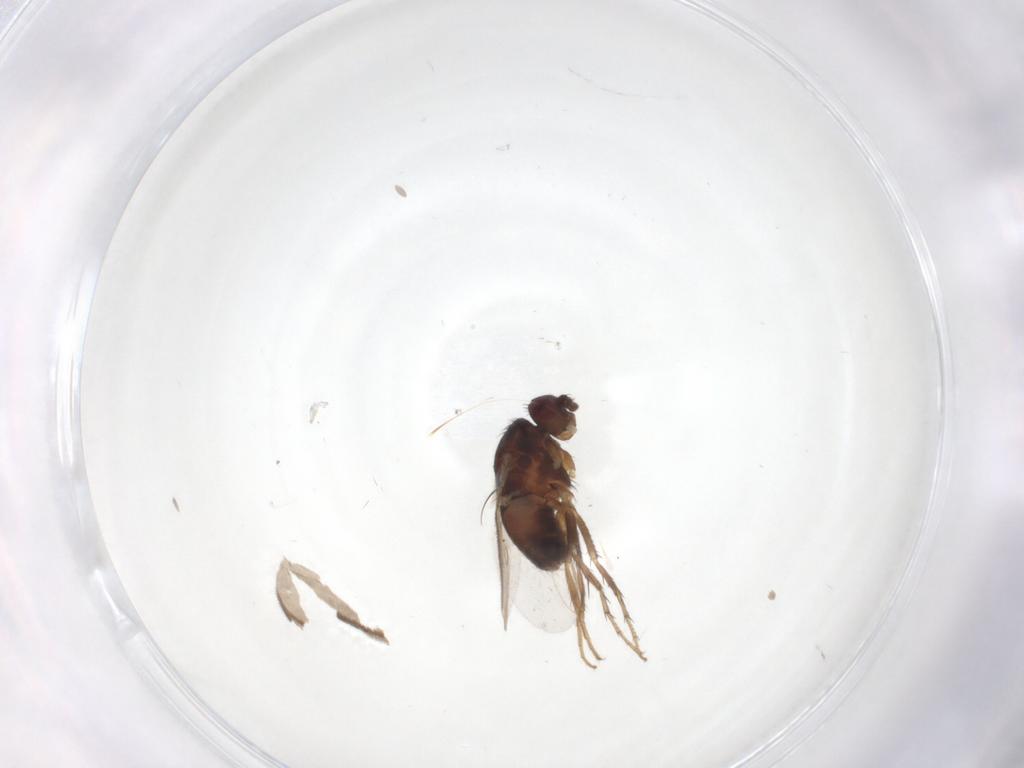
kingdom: Animalia
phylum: Arthropoda
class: Insecta
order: Diptera
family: Sphaeroceridae
